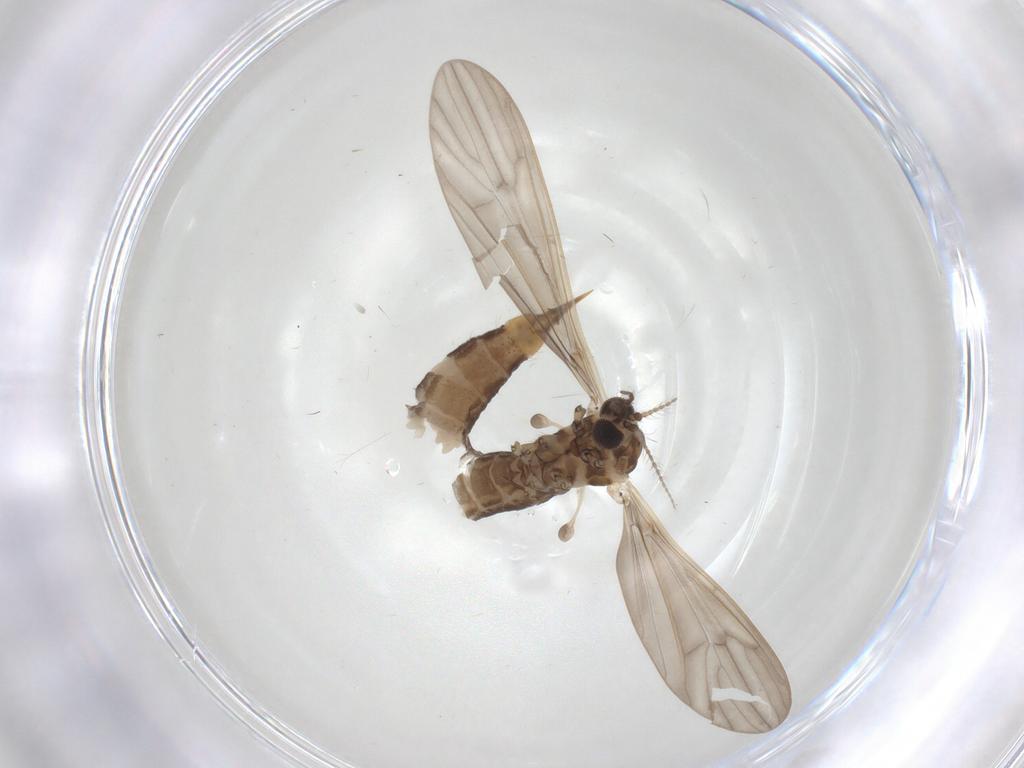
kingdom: Animalia
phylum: Arthropoda
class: Insecta
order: Diptera
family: Limoniidae
